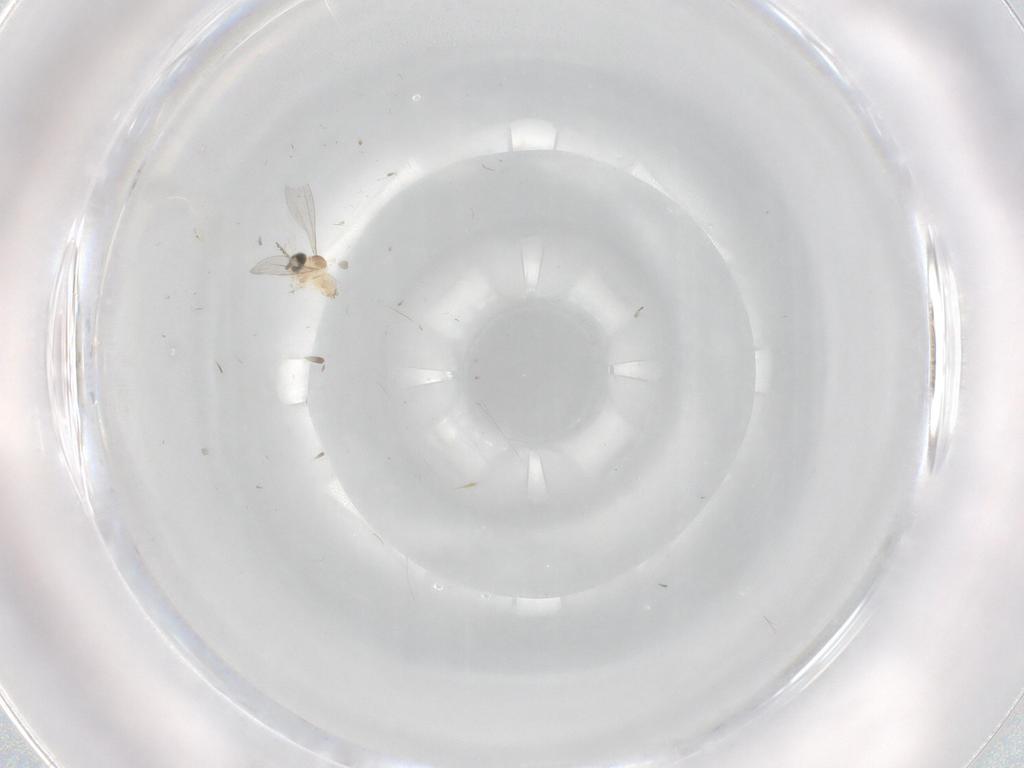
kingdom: Animalia
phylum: Arthropoda
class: Insecta
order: Diptera
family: Cecidomyiidae
